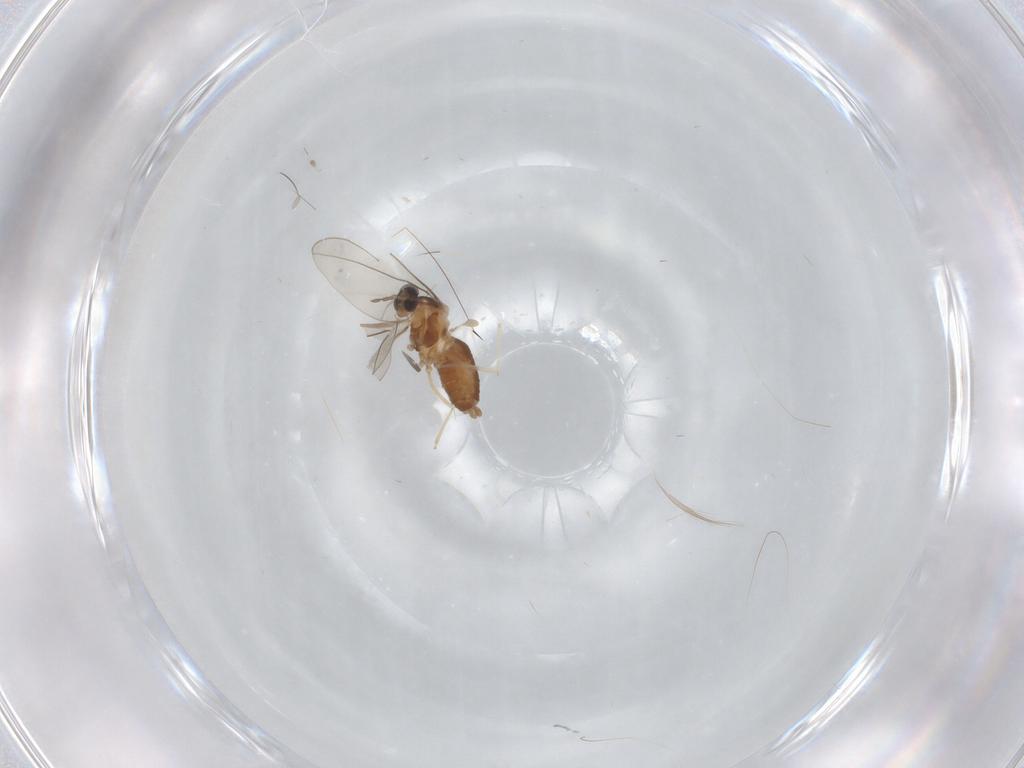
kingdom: Animalia
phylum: Arthropoda
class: Insecta
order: Diptera
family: Cecidomyiidae
